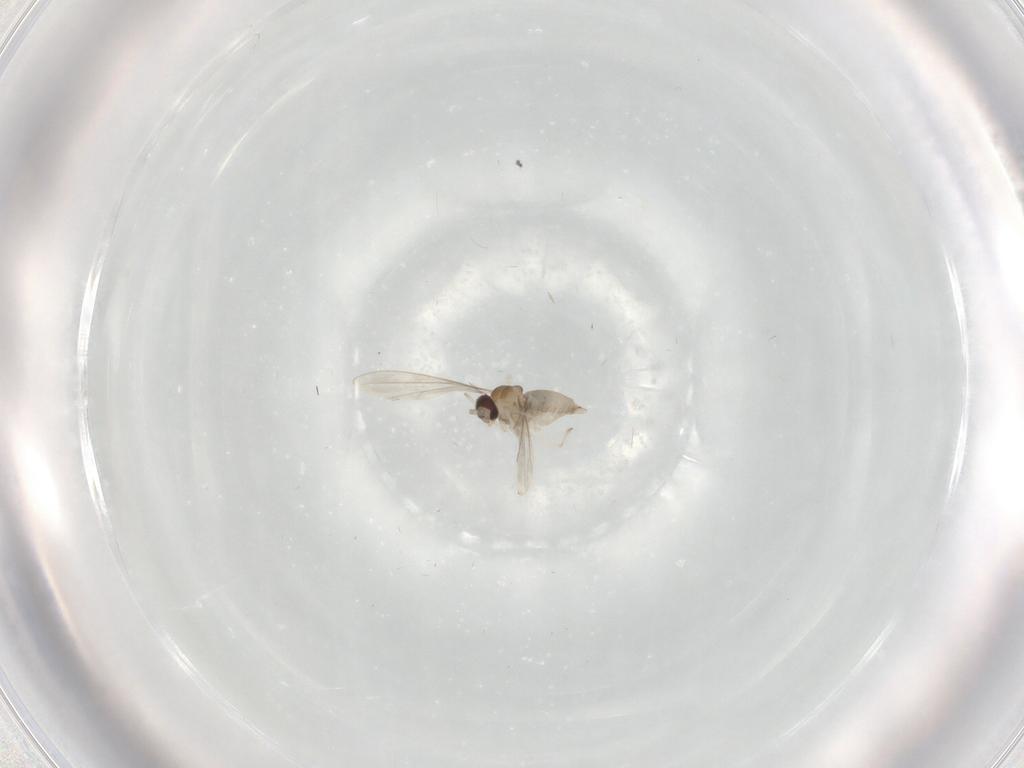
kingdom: Animalia
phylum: Arthropoda
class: Insecta
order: Diptera
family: Cecidomyiidae
